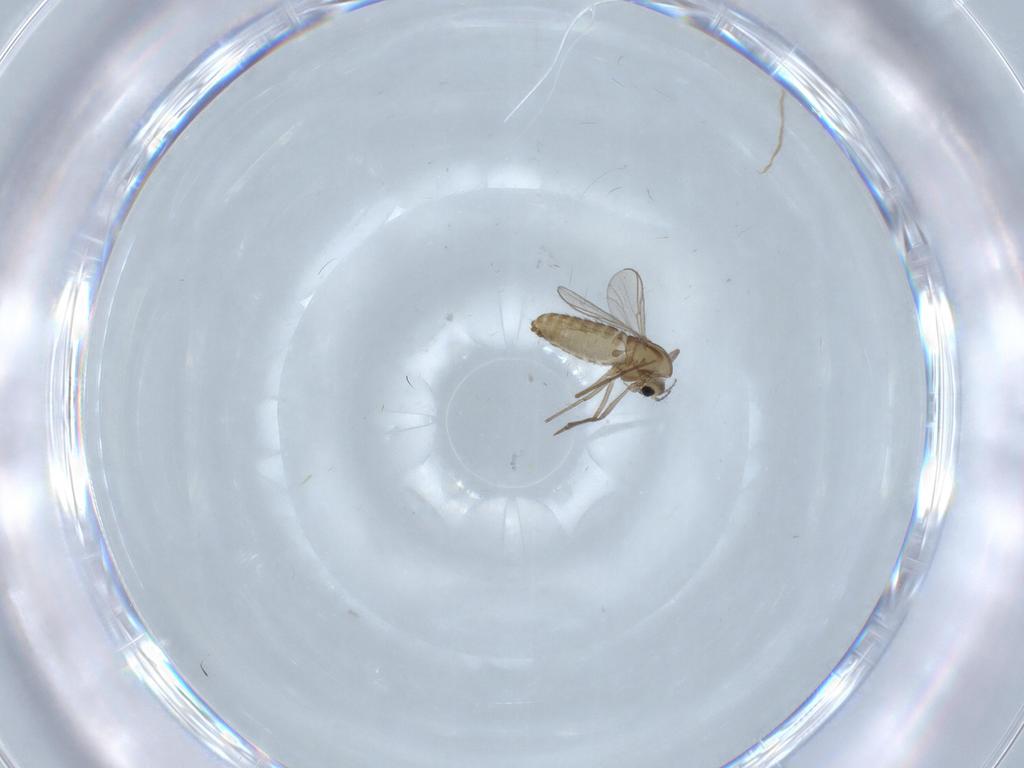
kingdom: Animalia
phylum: Arthropoda
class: Insecta
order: Diptera
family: Chironomidae
